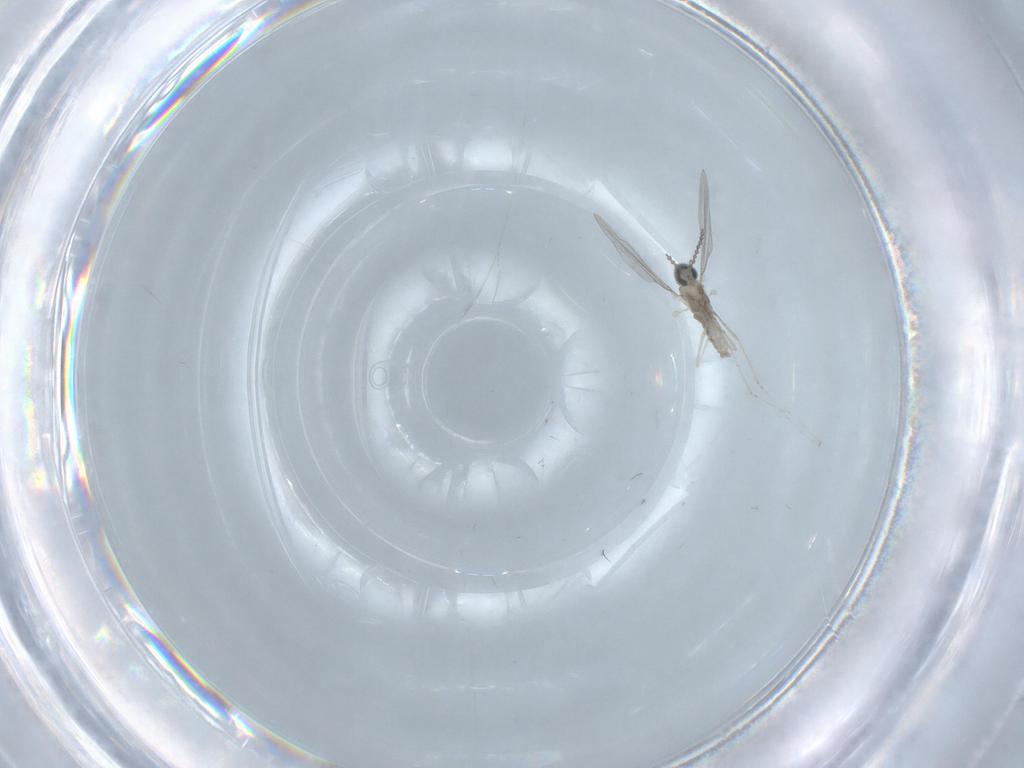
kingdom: Animalia
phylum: Arthropoda
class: Insecta
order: Diptera
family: Cecidomyiidae
